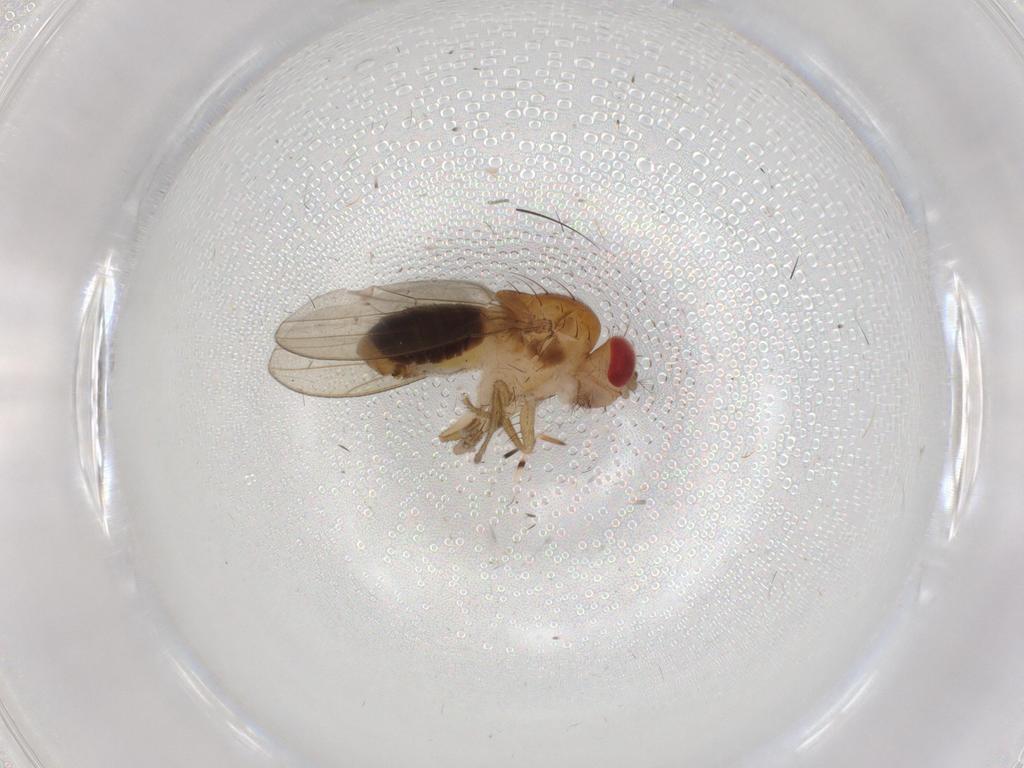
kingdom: Animalia
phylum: Arthropoda
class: Insecta
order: Diptera
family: Drosophilidae
